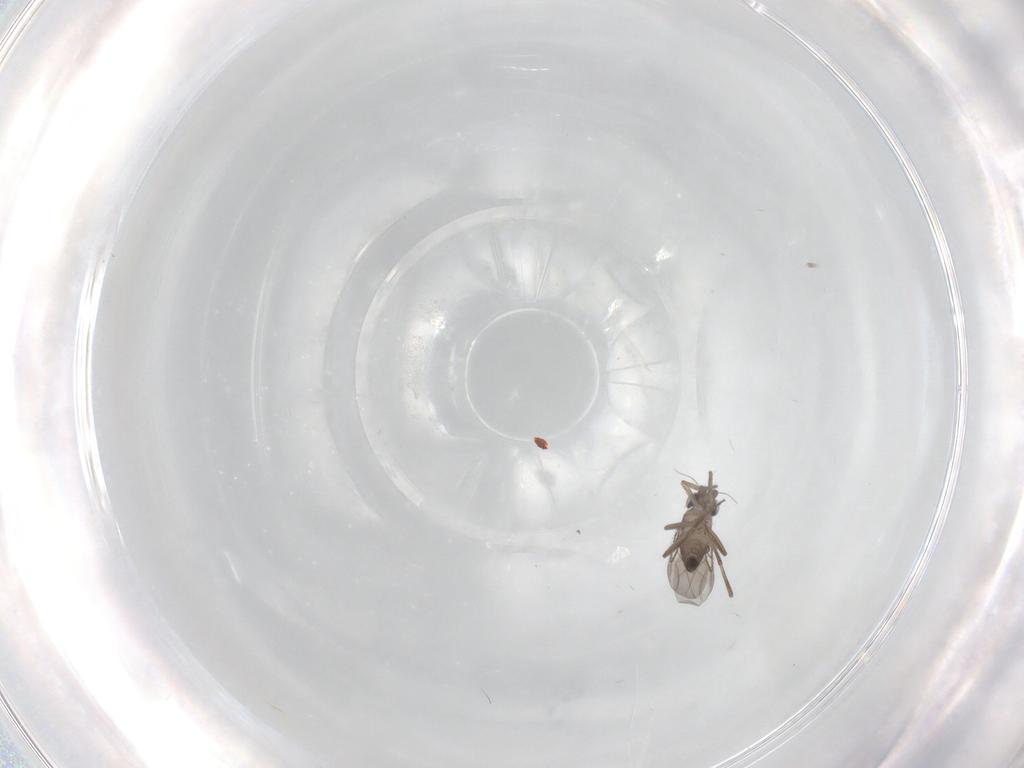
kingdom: Animalia
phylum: Arthropoda
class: Insecta
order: Diptera
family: Phoridae
